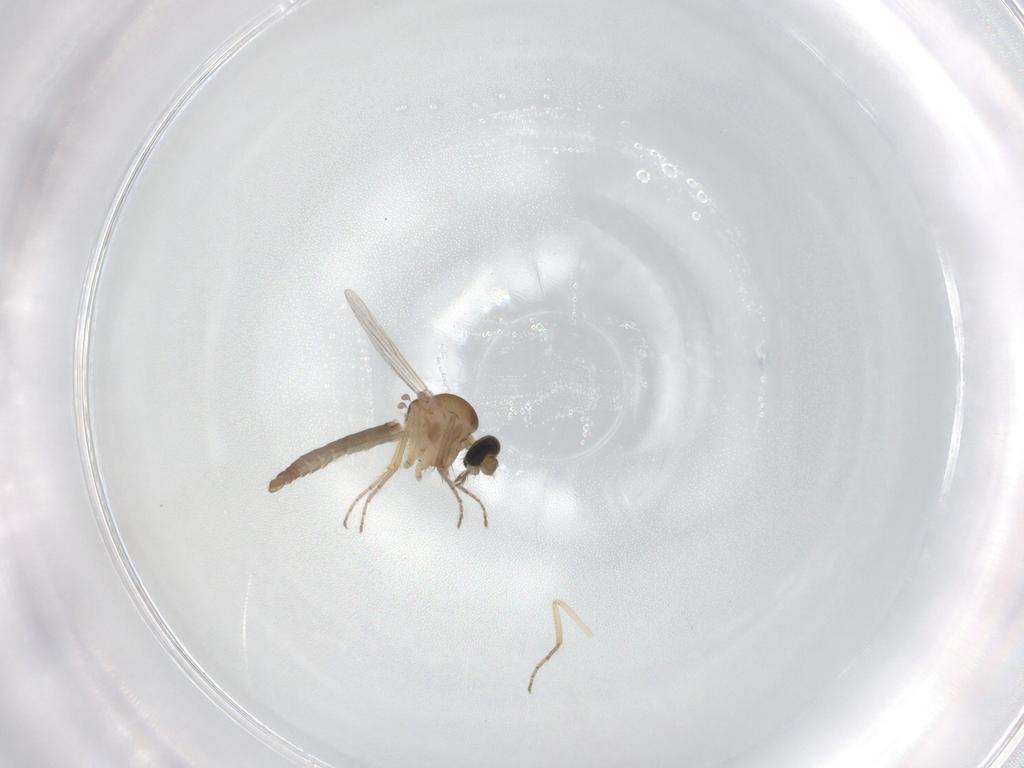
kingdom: Animalia
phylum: Arthropoda
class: Insecta
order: Diptera
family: Ceratopogonidae
